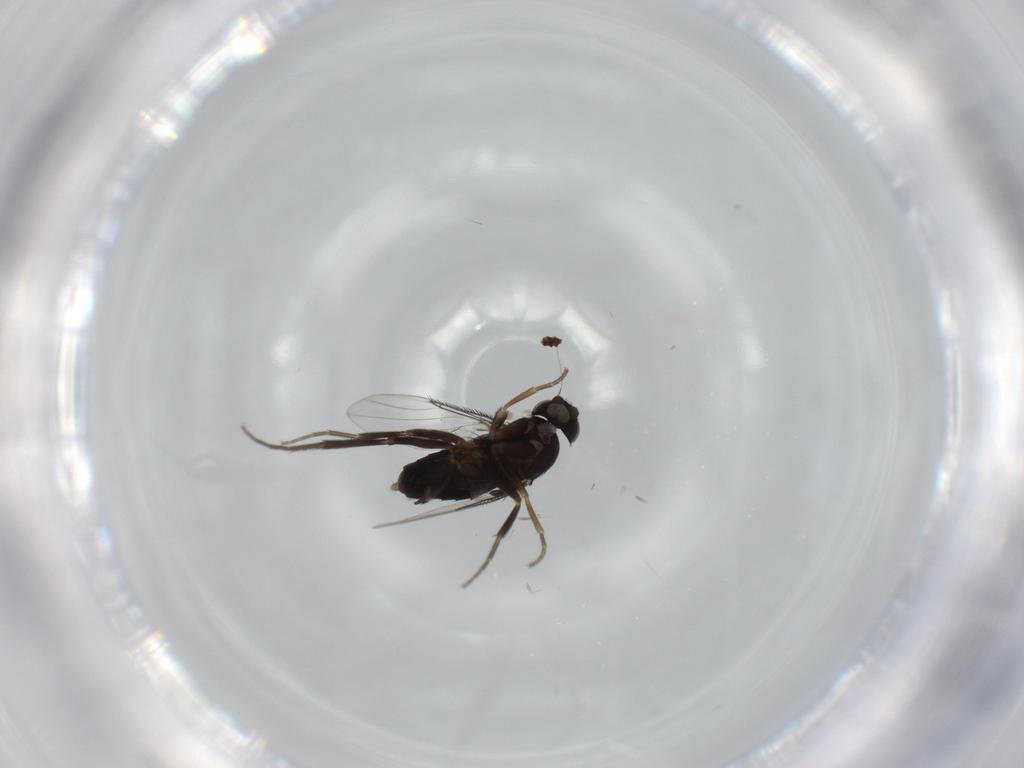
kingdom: Animalia
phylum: Arthropoda
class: Insecta
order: Diptera
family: Phoridae
